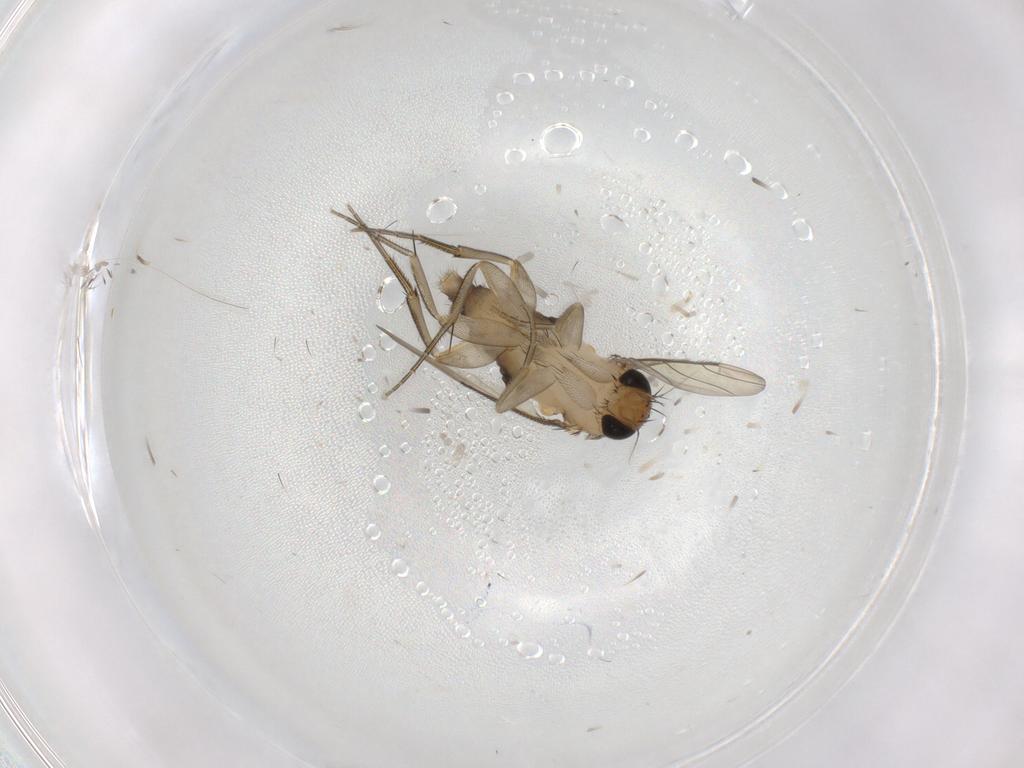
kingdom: Animalia
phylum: Arthropoda
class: Insecta
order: Diptera
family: Phoridae
